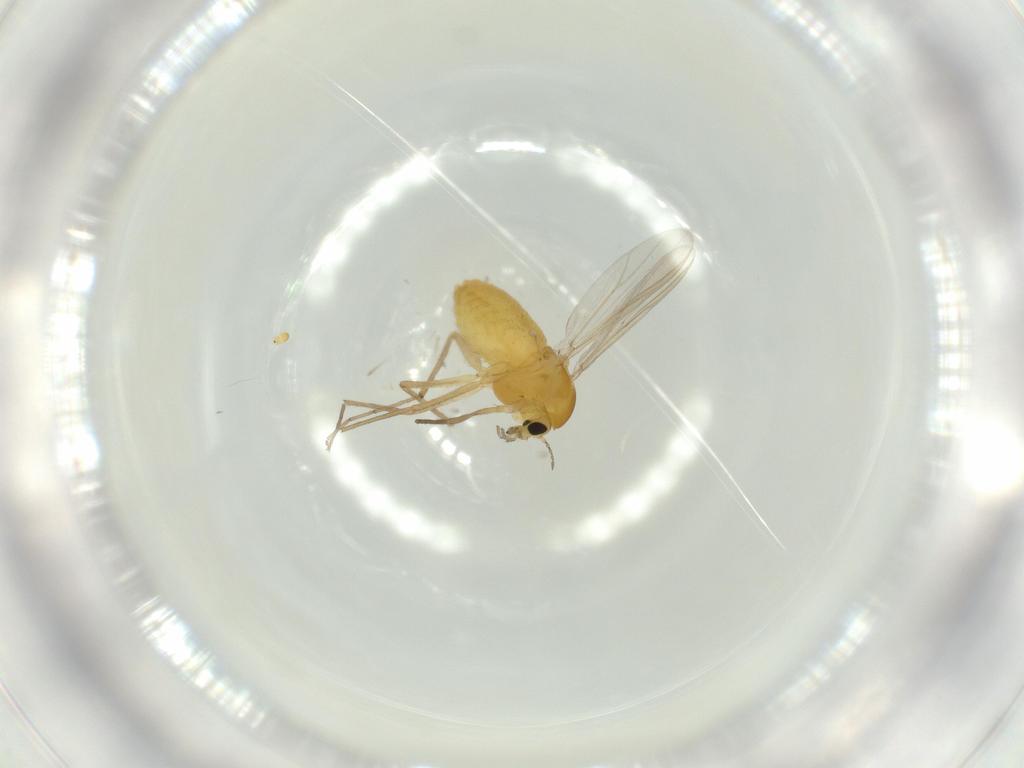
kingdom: Animalia
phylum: Arthropoda
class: Insecta
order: Diptera
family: Chironomidae
